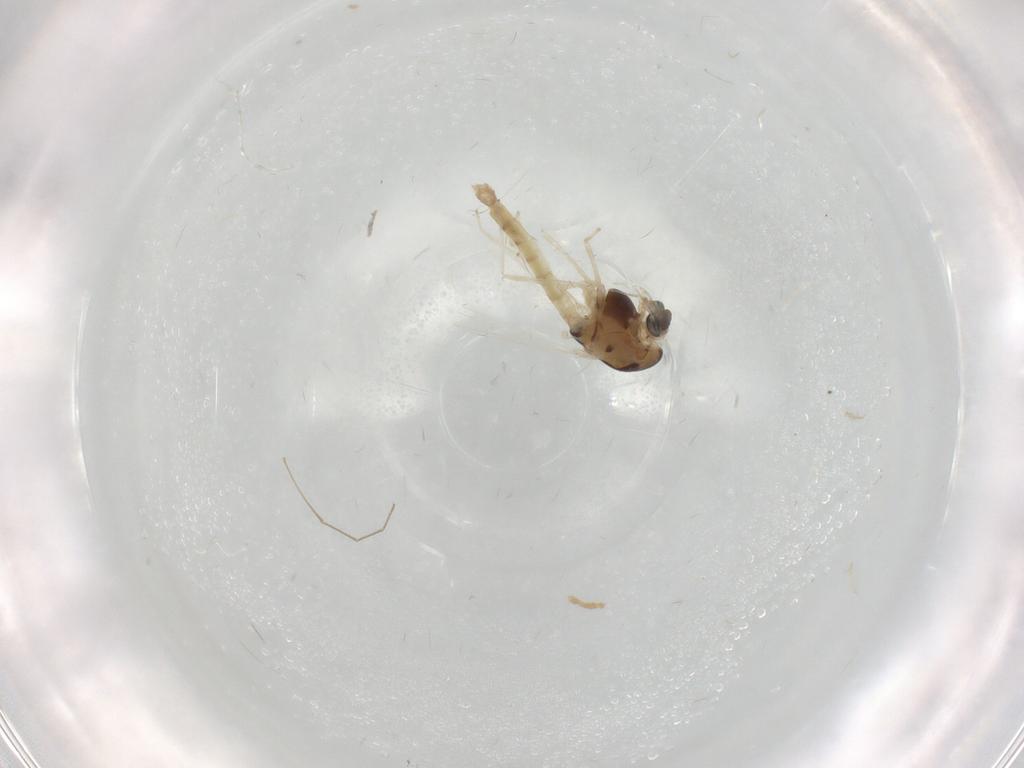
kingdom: Animalia
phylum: Arthropoda
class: Insecta
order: Diptera
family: Chironomidae
